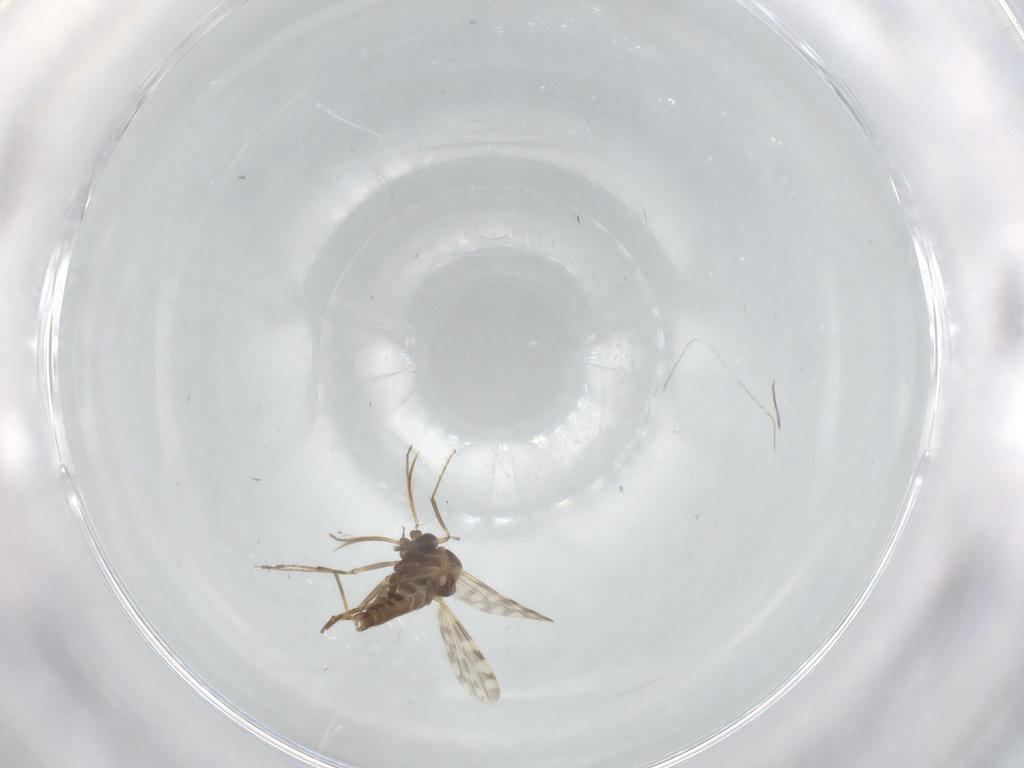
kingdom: Animalia
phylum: Arthropoda
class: Insecta
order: Diptera
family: Ceratopogonidae
